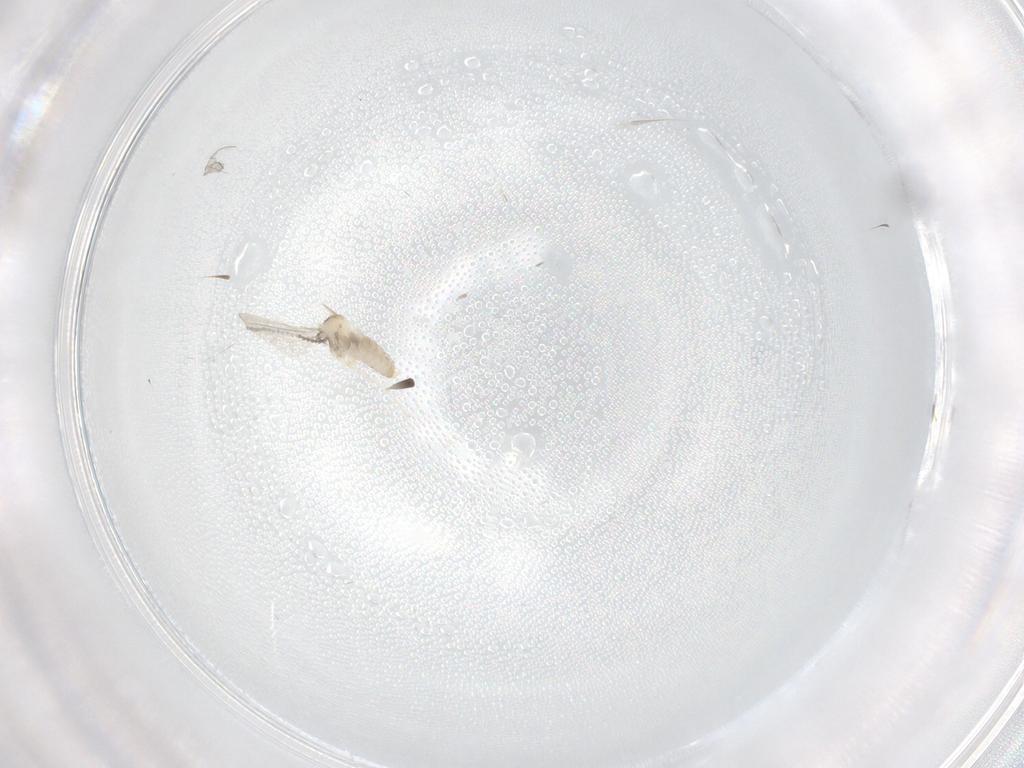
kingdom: Animalia
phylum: Arthropoda
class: Insecta
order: Diptera
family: Cecidomyiidae
